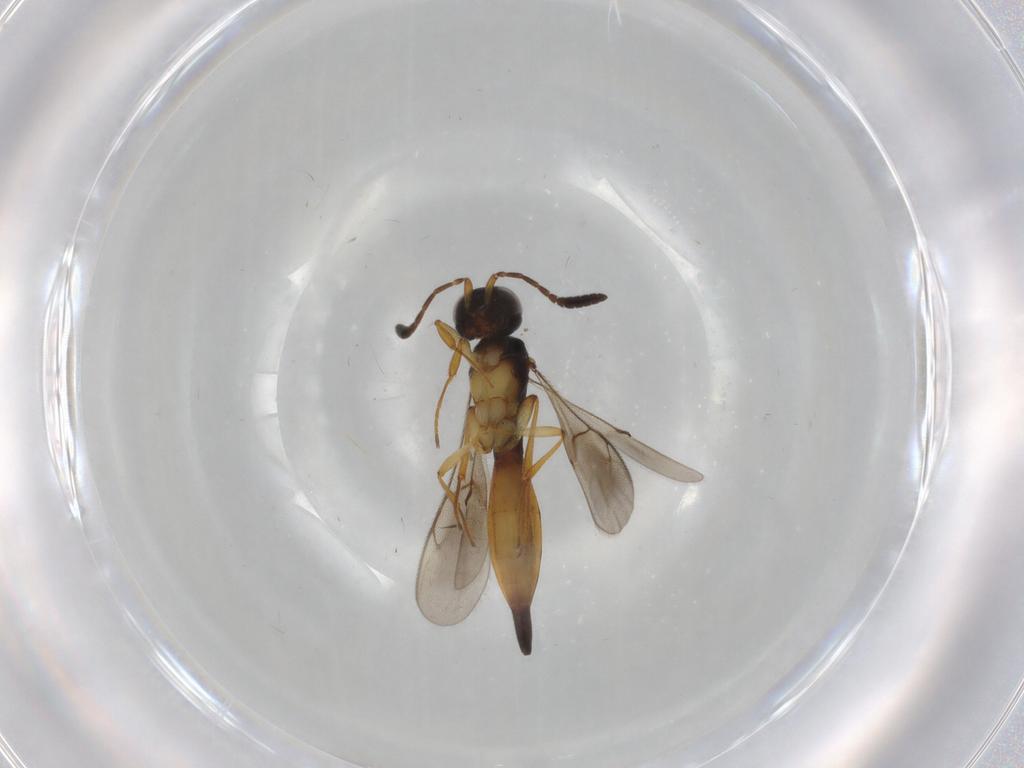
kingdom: Animalia
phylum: Arthropoda
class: Insecta
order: Hymenoptera
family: Scelionidae
